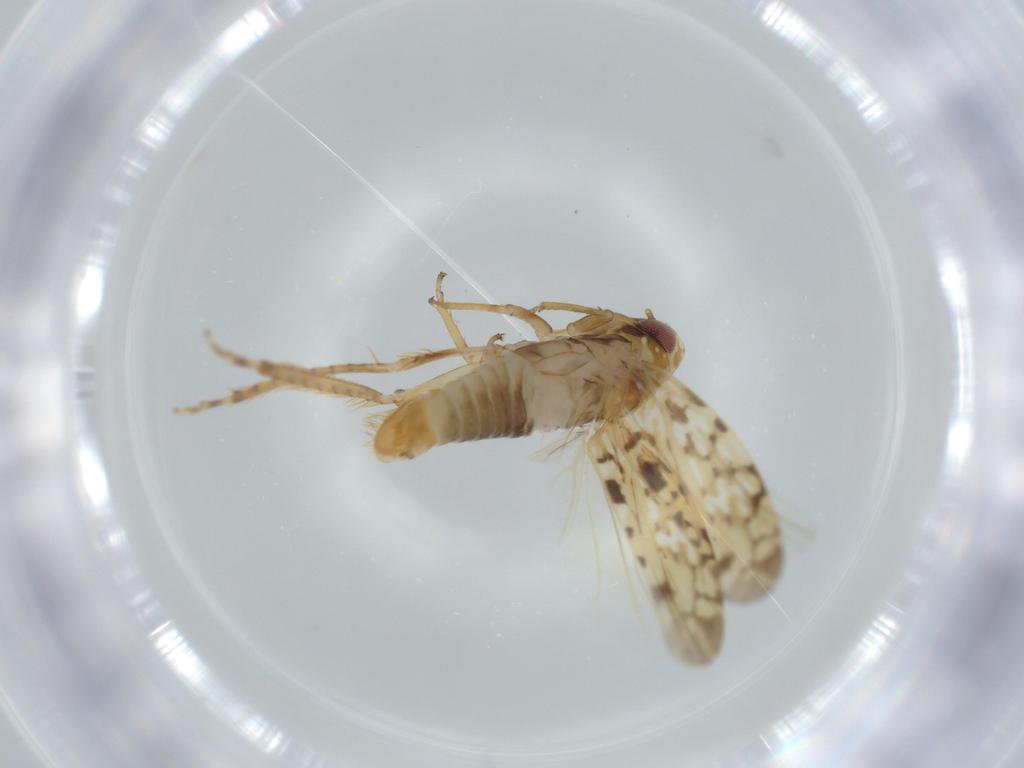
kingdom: Animalia
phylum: Arthropoda
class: Insecta
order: Hemiptera
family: Cicadellidae
